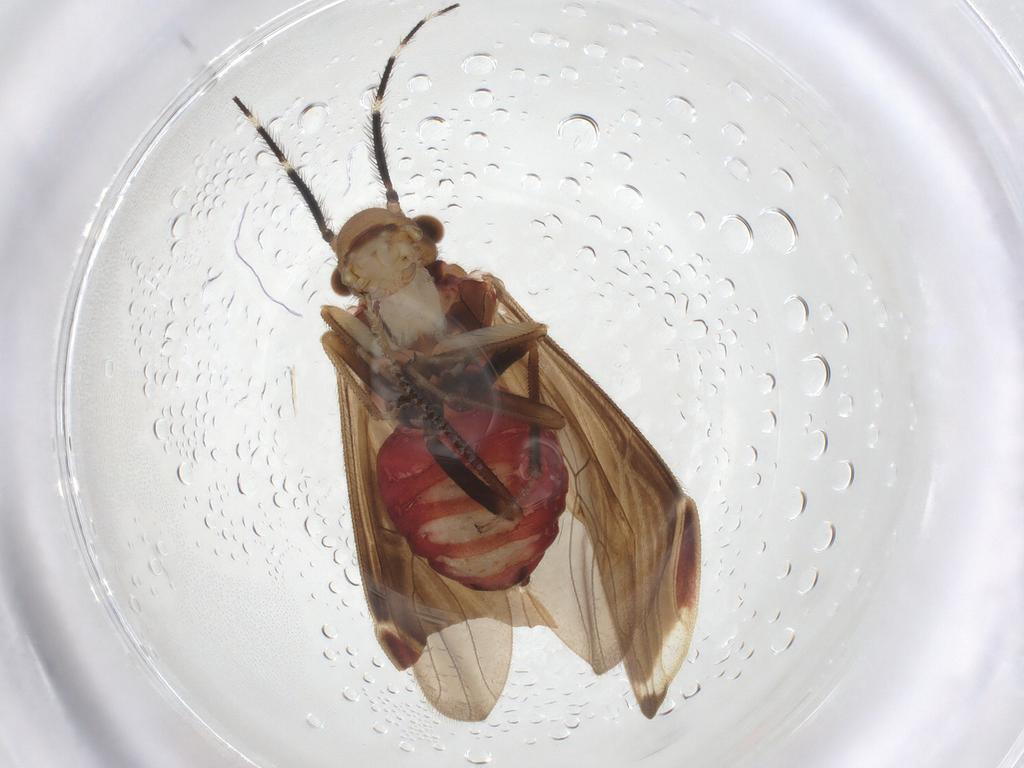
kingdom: Animalia
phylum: Arthropoda
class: Insecta
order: Psocodea
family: Amphipsocidae
